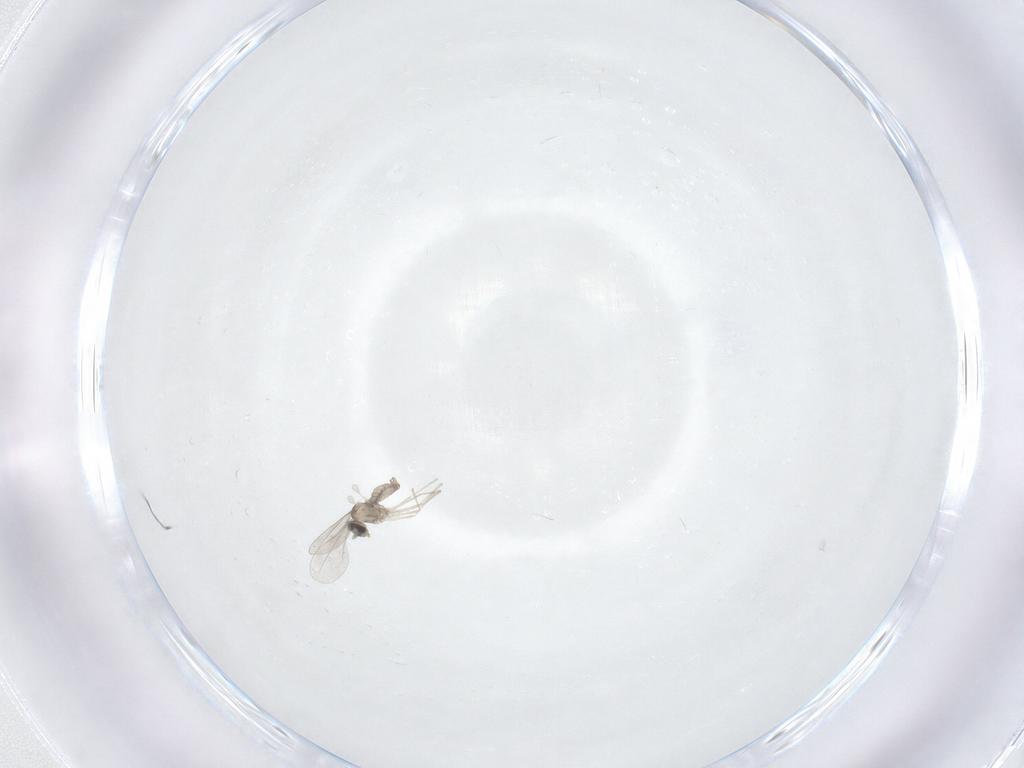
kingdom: Animalia
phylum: Arthropoda
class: Insecta
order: Diptera
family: Cecidomyiidae
